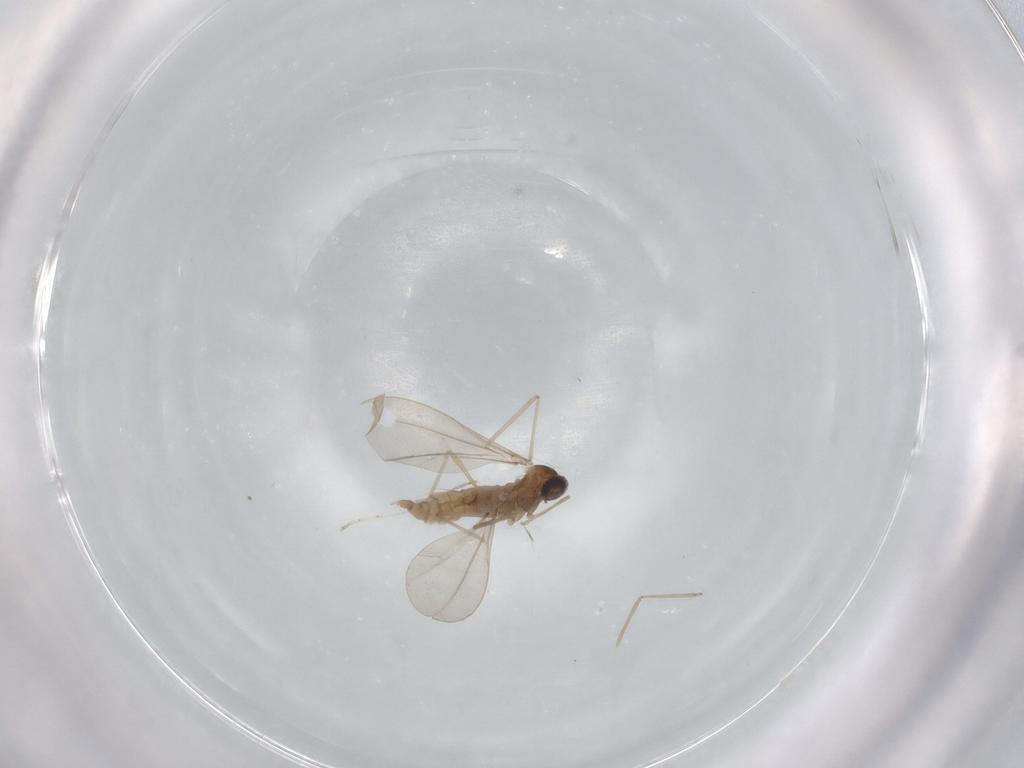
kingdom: Animalia
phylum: Arthropoda
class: Insecta
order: Diptera
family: Cecidomyiidae
